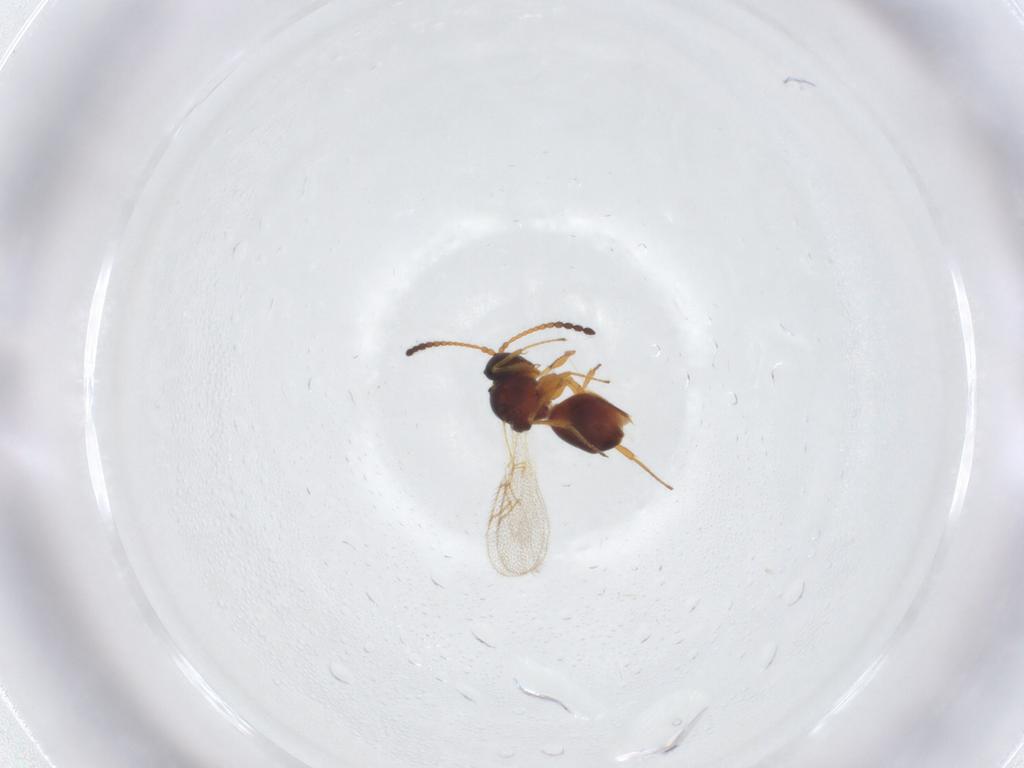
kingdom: Animalia
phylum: Arthropoda
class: Insecta
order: Hymenoptera
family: Figitidae
